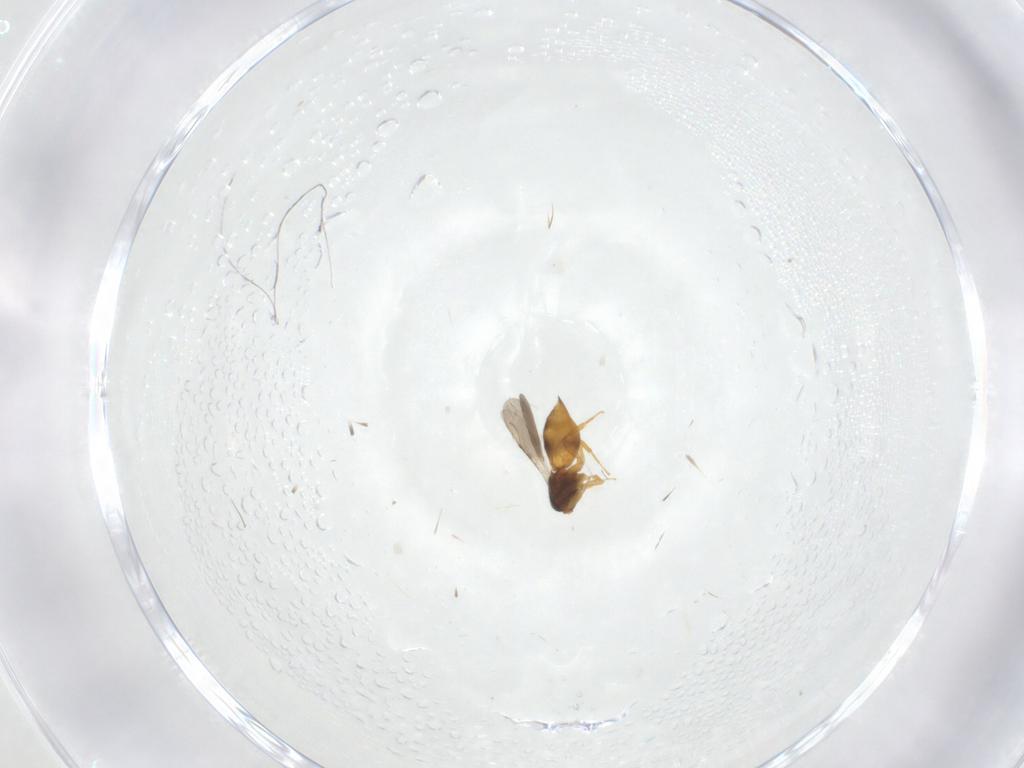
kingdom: Animalia
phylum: Arthropoda
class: Insecta
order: Hymenoptera
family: Ceraphronidae
